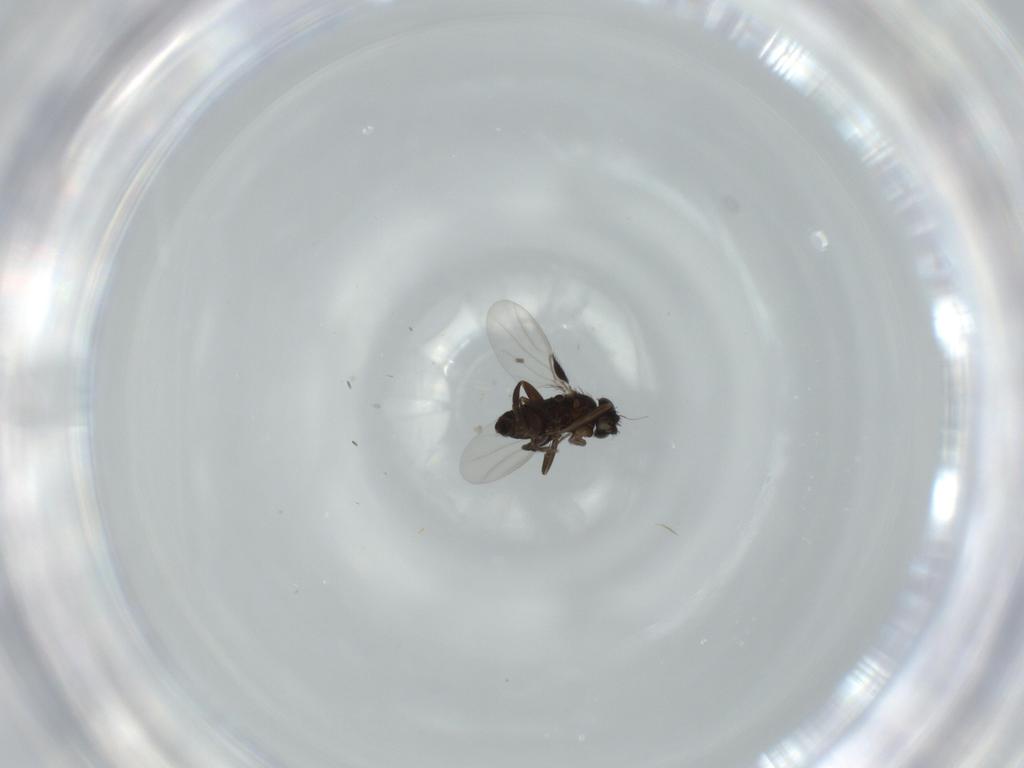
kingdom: Animalia
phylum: Arthropoda
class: Insecta
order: Diptera
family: Phoridae
